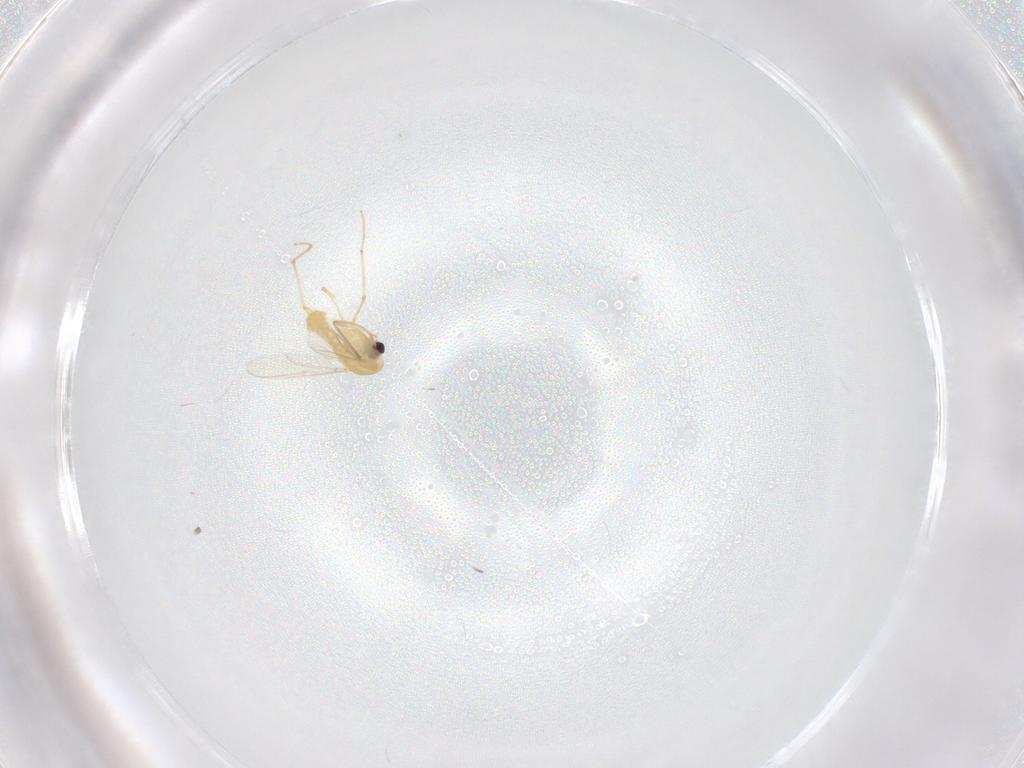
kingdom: Animalia
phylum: Arthropoda
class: Insecta
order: Diptera
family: Chironomidae
